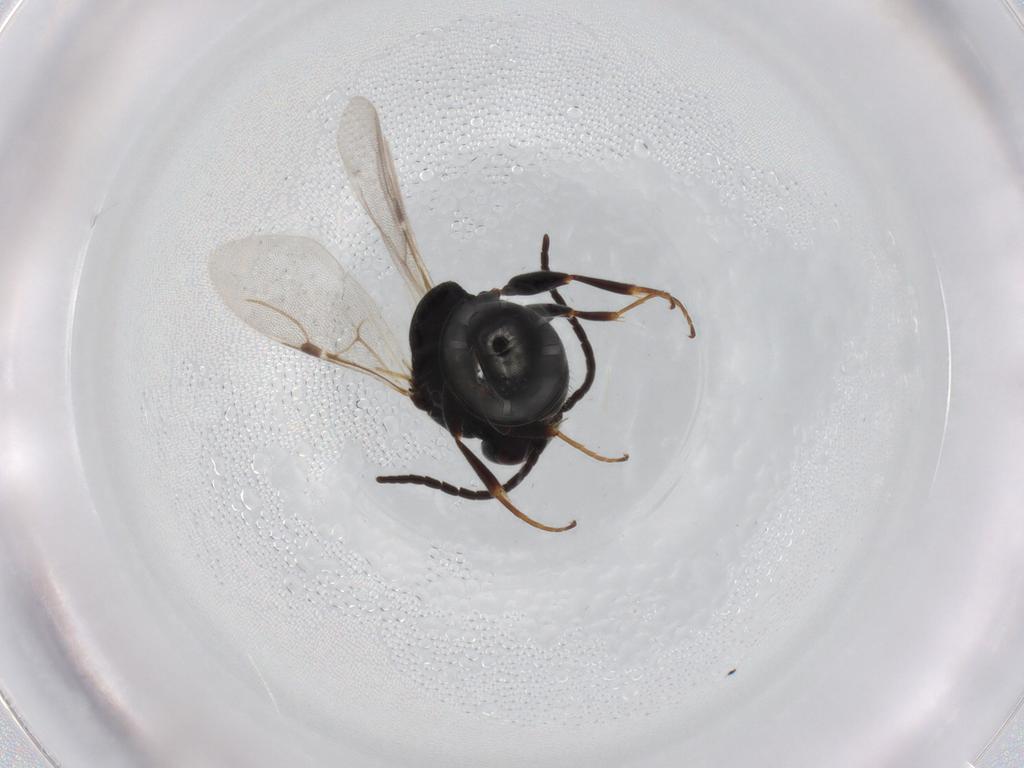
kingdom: Animalia
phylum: Arthropoda
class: Insecta
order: Hymenoptera
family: Bethylidae
